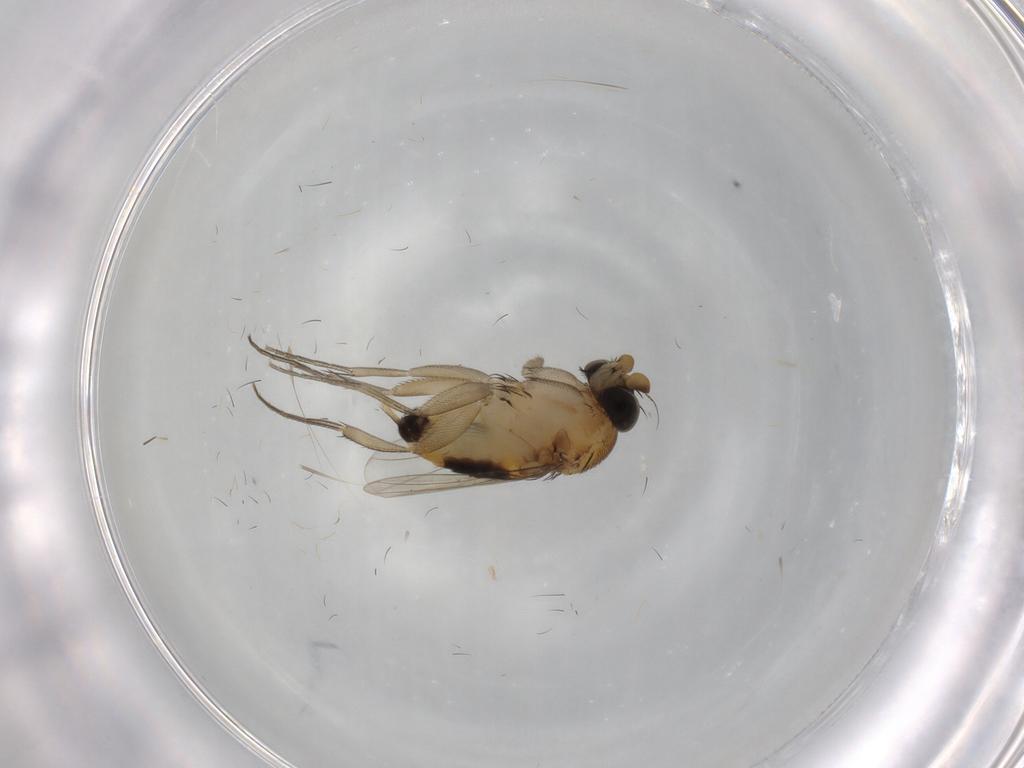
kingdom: Animalia
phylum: Arthropoda
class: Insecta
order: Diptera
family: Phoridae
